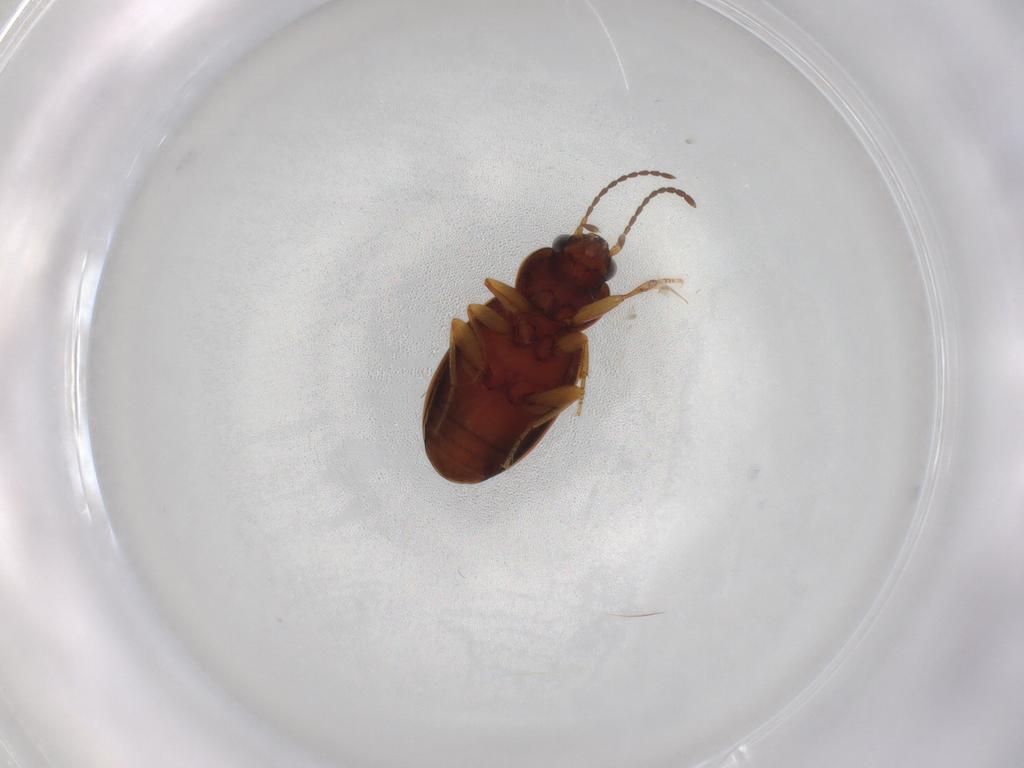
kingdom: Animalia
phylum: Arthropoda
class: Insecta
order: Coleoptera
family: Carabidae
